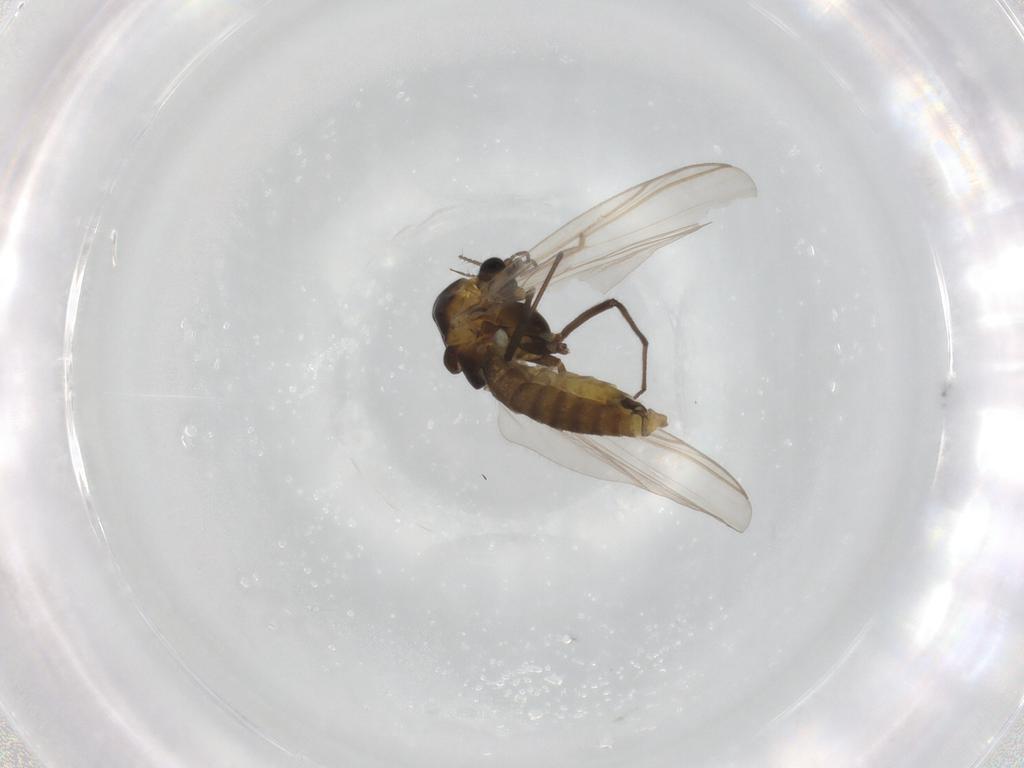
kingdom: Animalia
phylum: Arthropoda
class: Insecta
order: Diptera
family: Chironomidae
